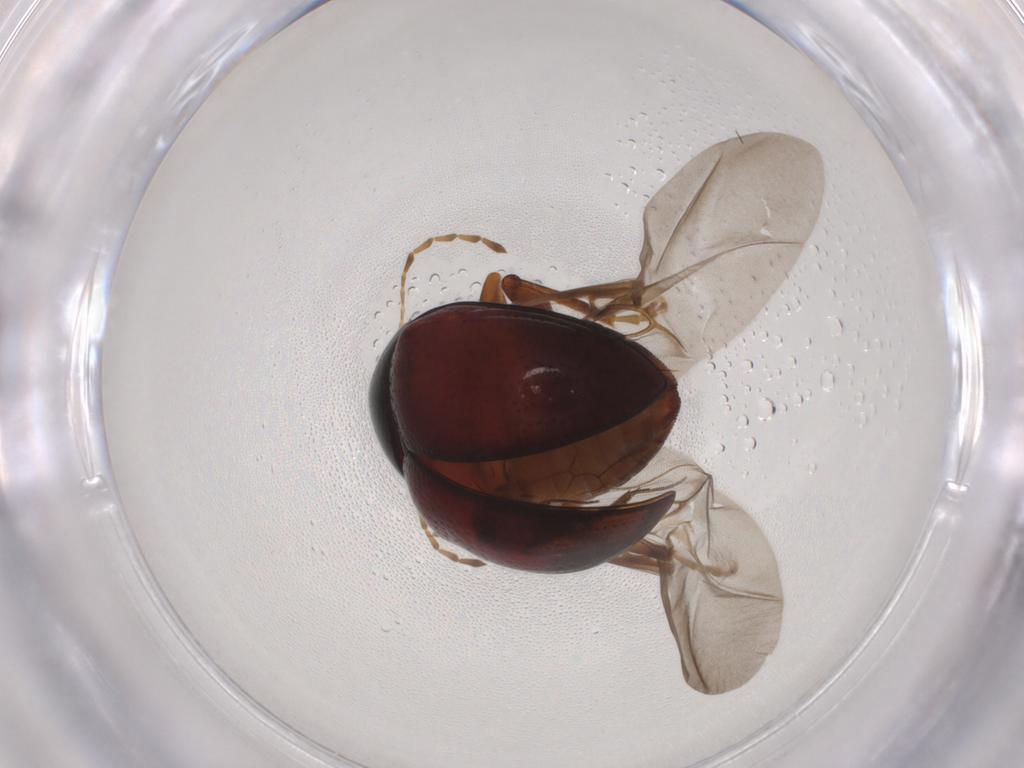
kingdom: Animalia
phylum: Arthropoda
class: Insecta
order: Coleoptera
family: Chrysomelidae
